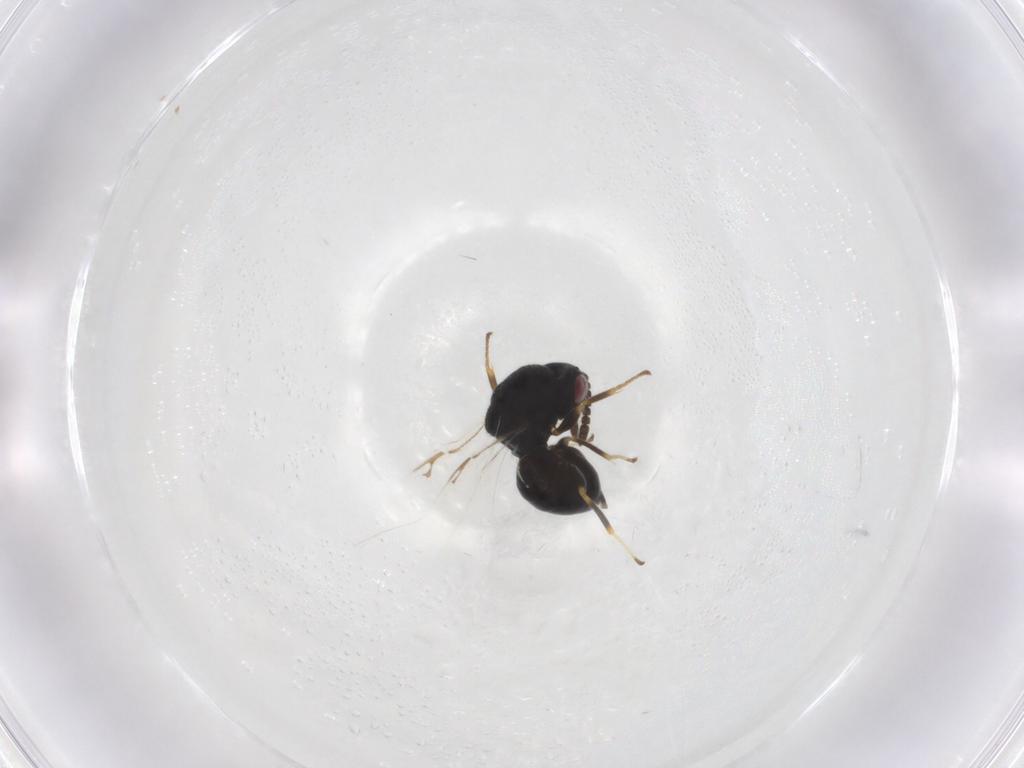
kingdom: Animalia
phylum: Arthropoda
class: Insecta
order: Hymenoptera
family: Eurytomidae
